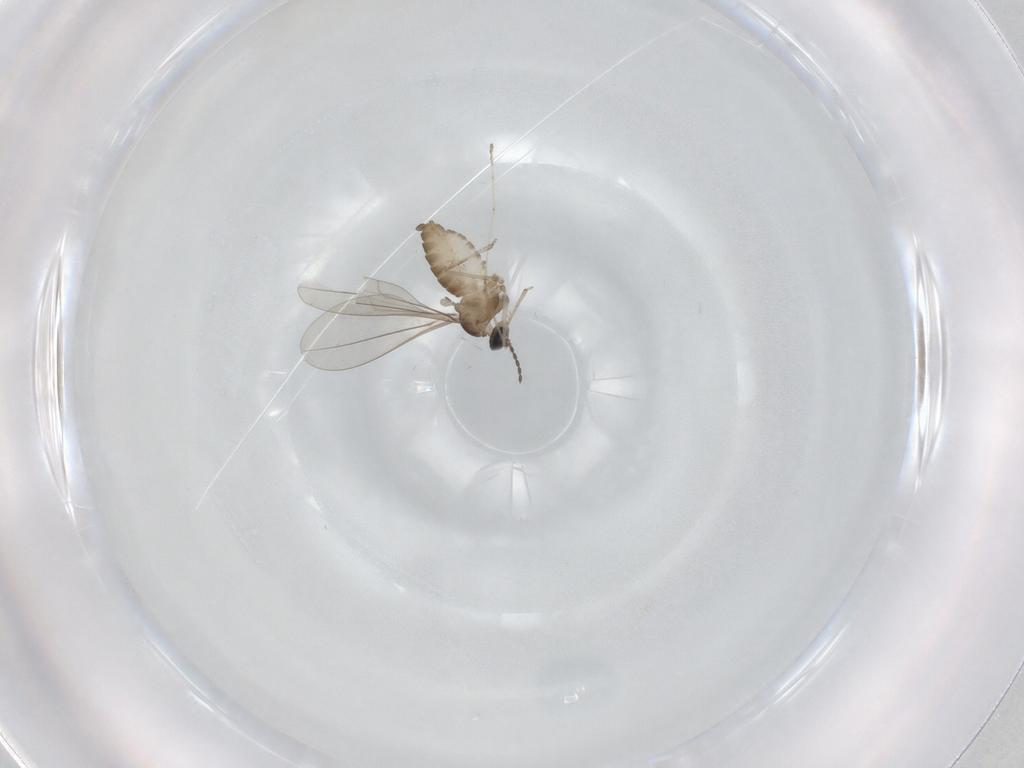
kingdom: Animalia
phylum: Arthropoda
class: Insecta
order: Diptera
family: Cecidomyiidae
